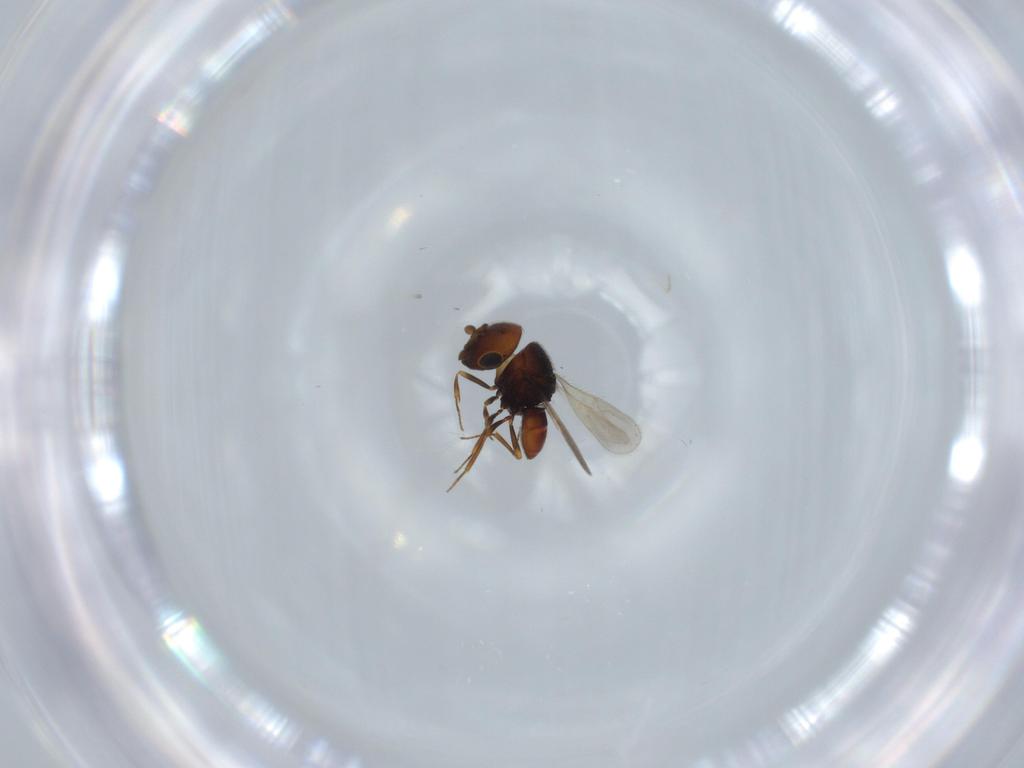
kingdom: Animalia
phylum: Arthropoda
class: Insecta
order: Hymenoptera
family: Scelionidae
